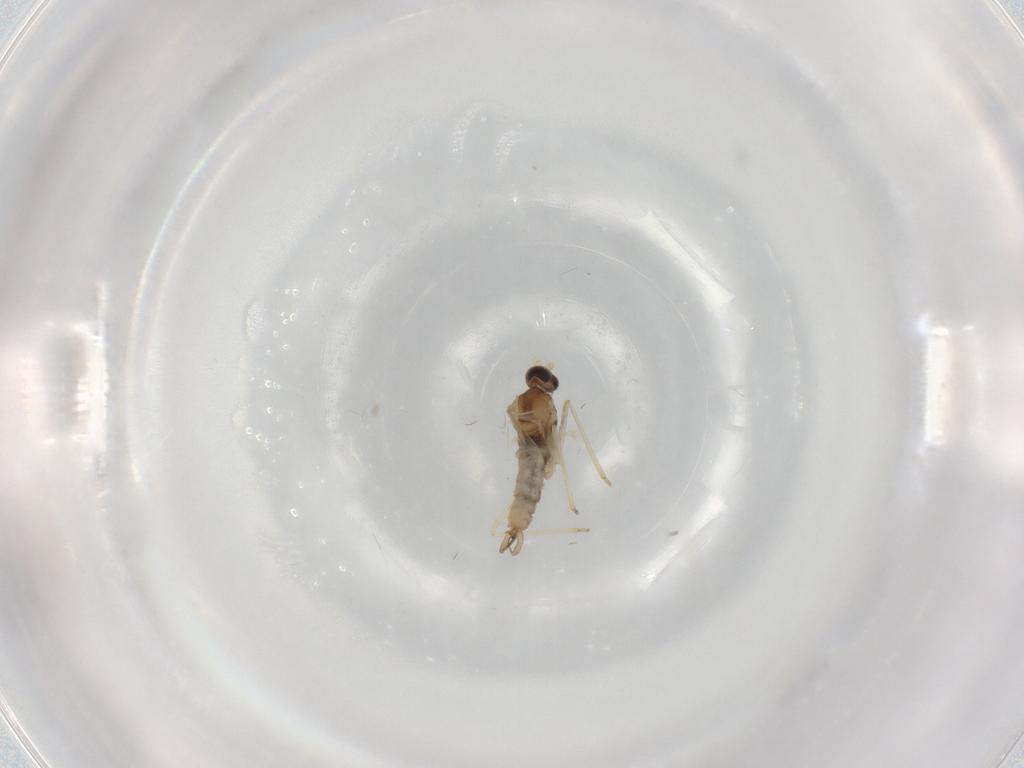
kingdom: Animalia
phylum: Arthropoda
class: Insecta
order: Diptera
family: Cecidomyiidae
